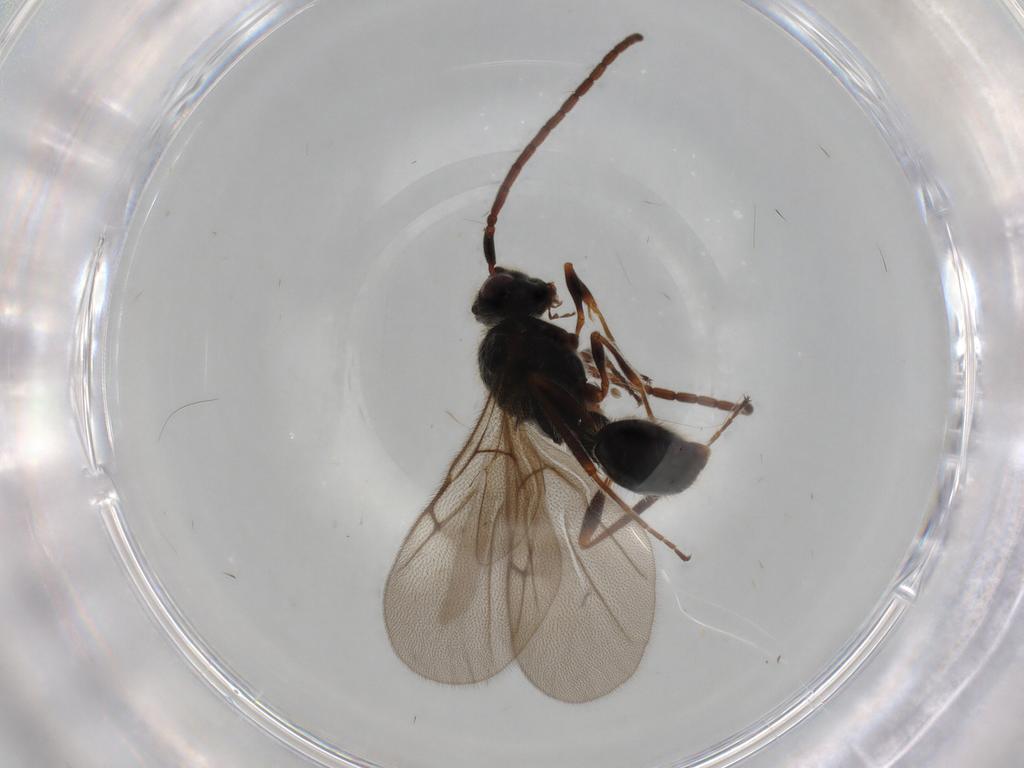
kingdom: Animalia
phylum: Arthropoda
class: Insecta
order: Hymenoptera
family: Ichneumonidae
